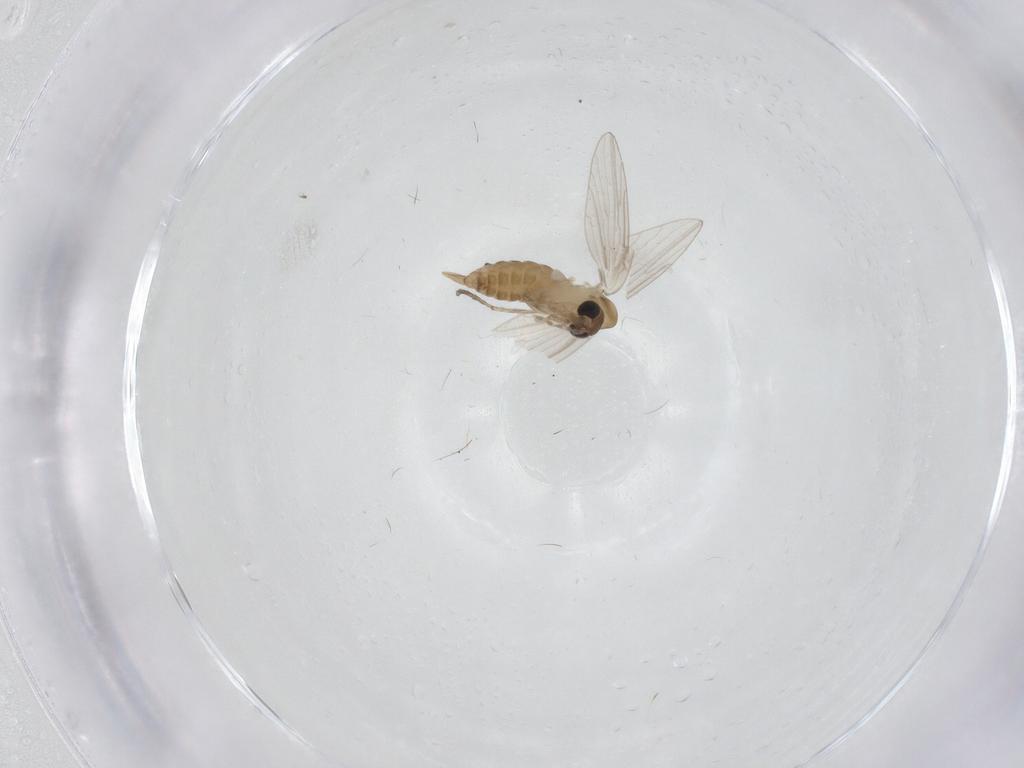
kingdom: Animalia
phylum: Arthropoda
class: Insecta
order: Diptera
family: Psychodidae
